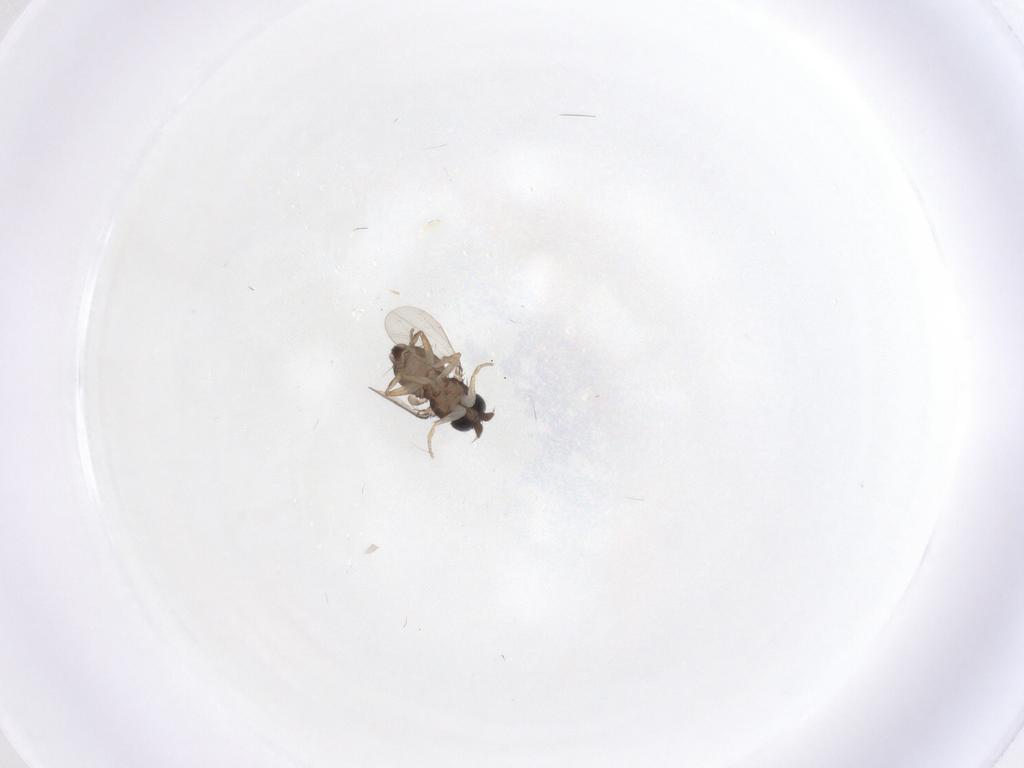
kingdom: Animalia
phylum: Arthropoda
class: Insecta
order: Diptera
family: Phoridae
